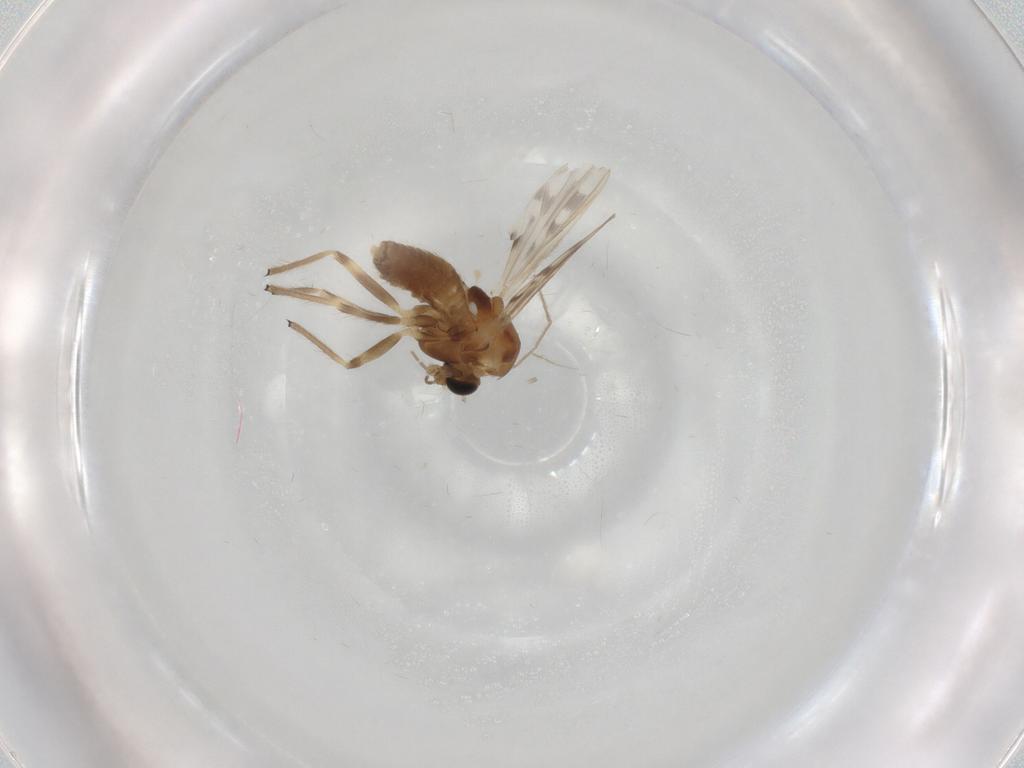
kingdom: Animalia
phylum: Arthropoda
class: Insecta
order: Diptera
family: Chironomidae
